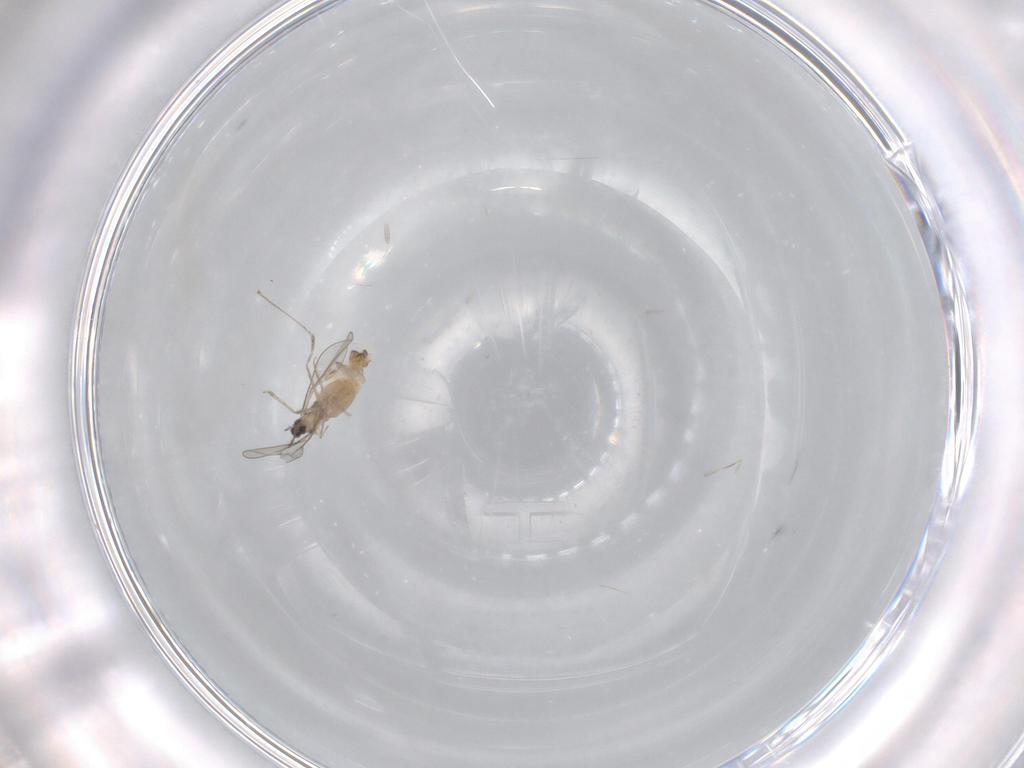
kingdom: Animalia
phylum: Arthropoda
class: Insecta
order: Diptera
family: Cecidomyiidae
